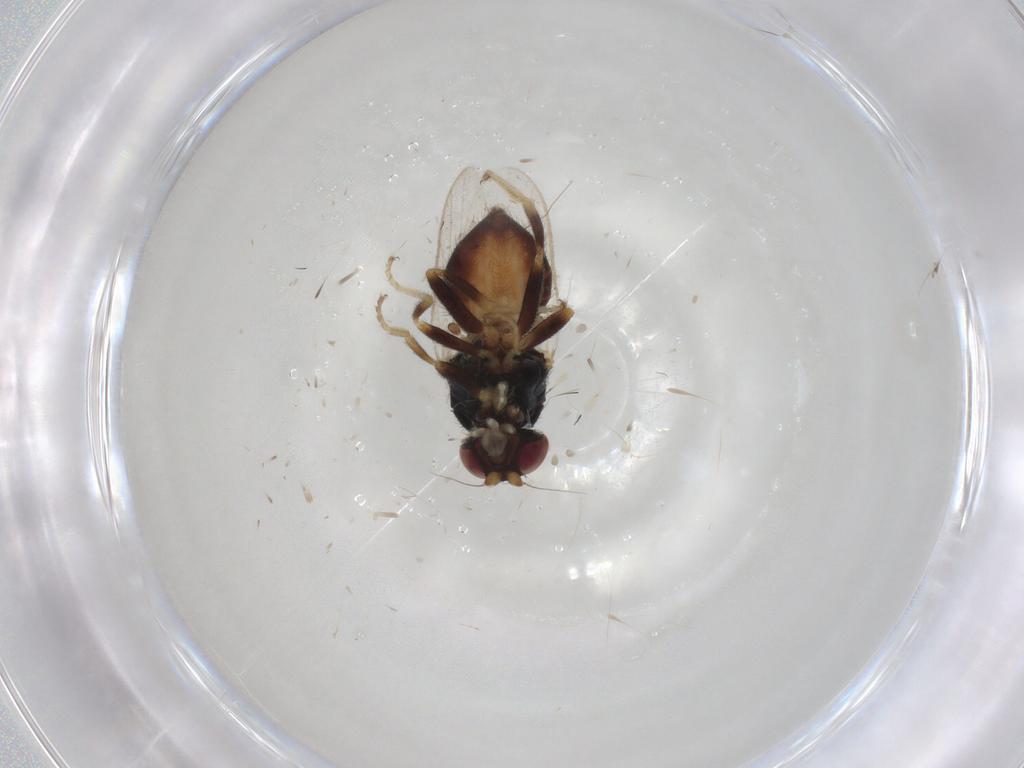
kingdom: Animalia
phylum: Arthropoda
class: Insecta
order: Diptera
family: Chloropidae
